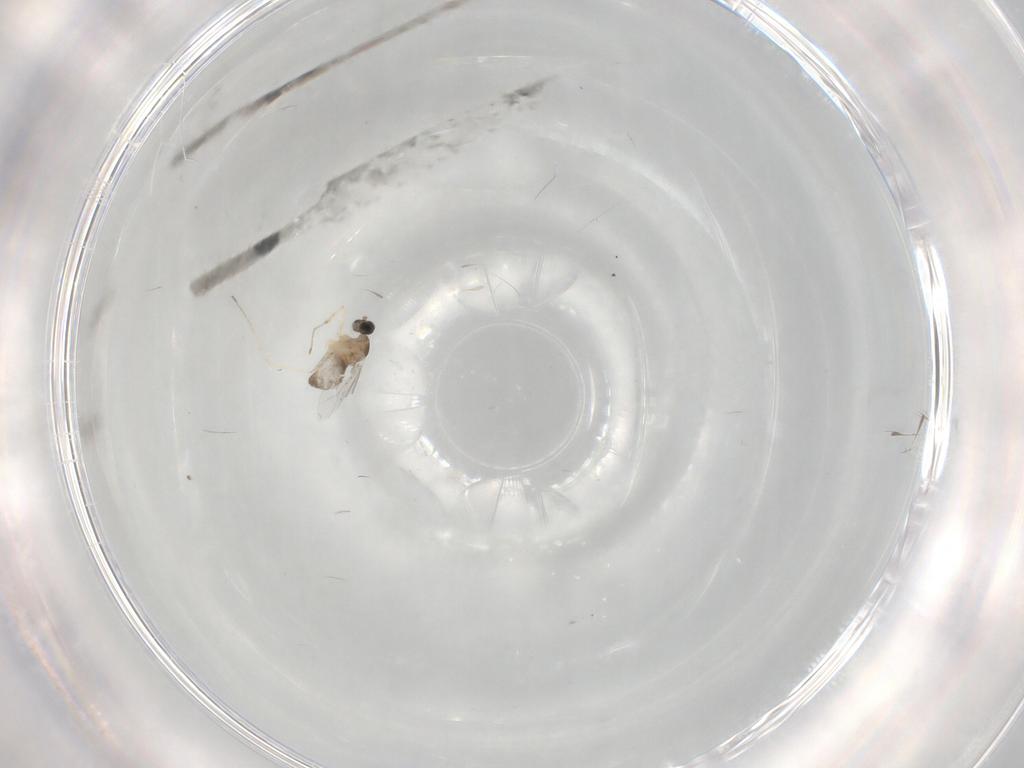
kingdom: Animalia
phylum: Arthropoda
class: Insecta
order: Diptera
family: Cecidomyiidae
